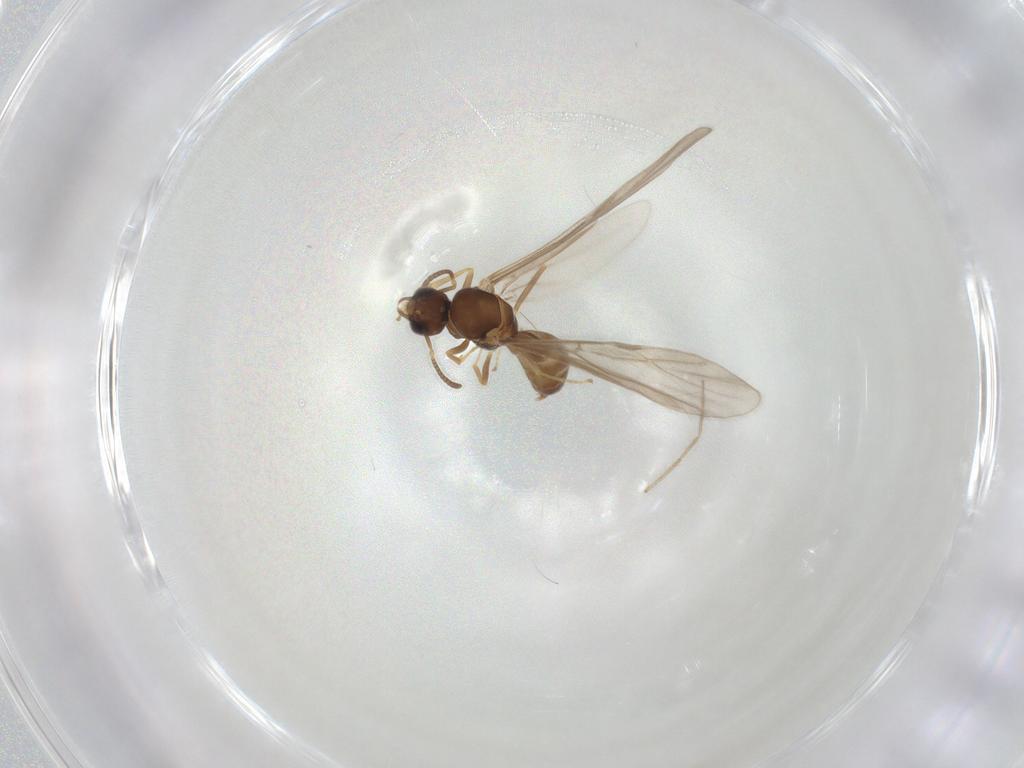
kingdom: Animalia
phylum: Arthropoda
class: Insecta
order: Hymenoptera
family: Formicidae
